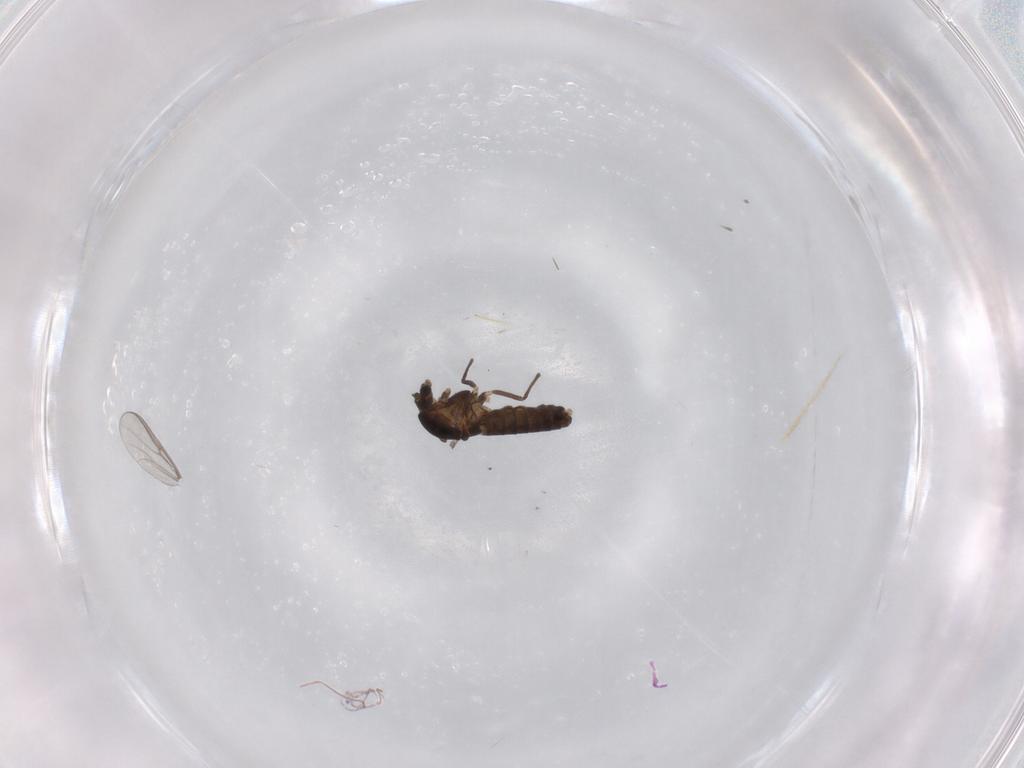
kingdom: Animalia
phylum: Arthropoda
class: Insecta
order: Diptera
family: Chironomidae
